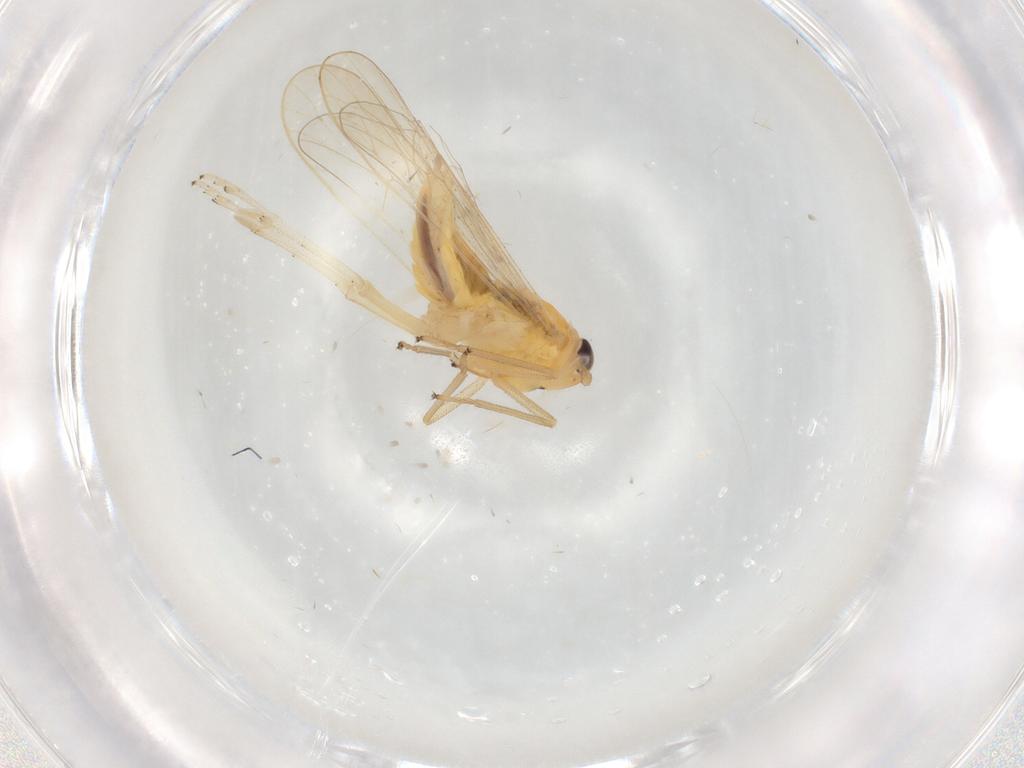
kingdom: Animalia
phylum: Arthropoda
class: Insecta
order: Hemiptera
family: Delphacidae
